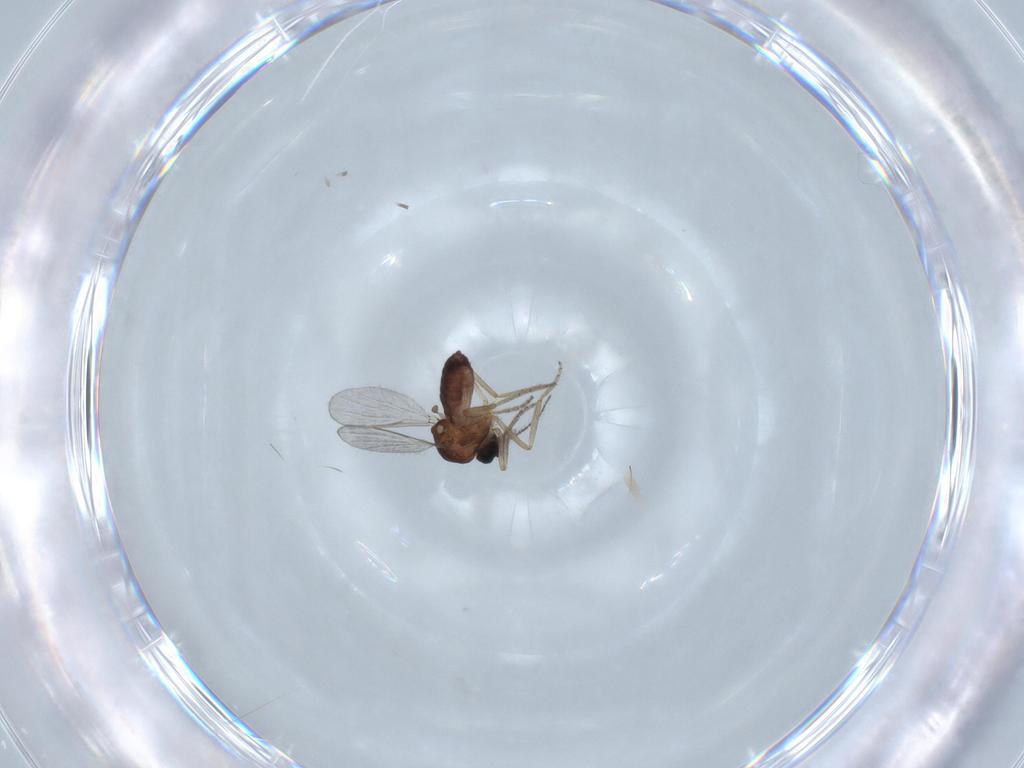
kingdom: Animalia
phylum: Arthropoda
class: Insecta
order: Diptera
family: Ceratopogonidae
